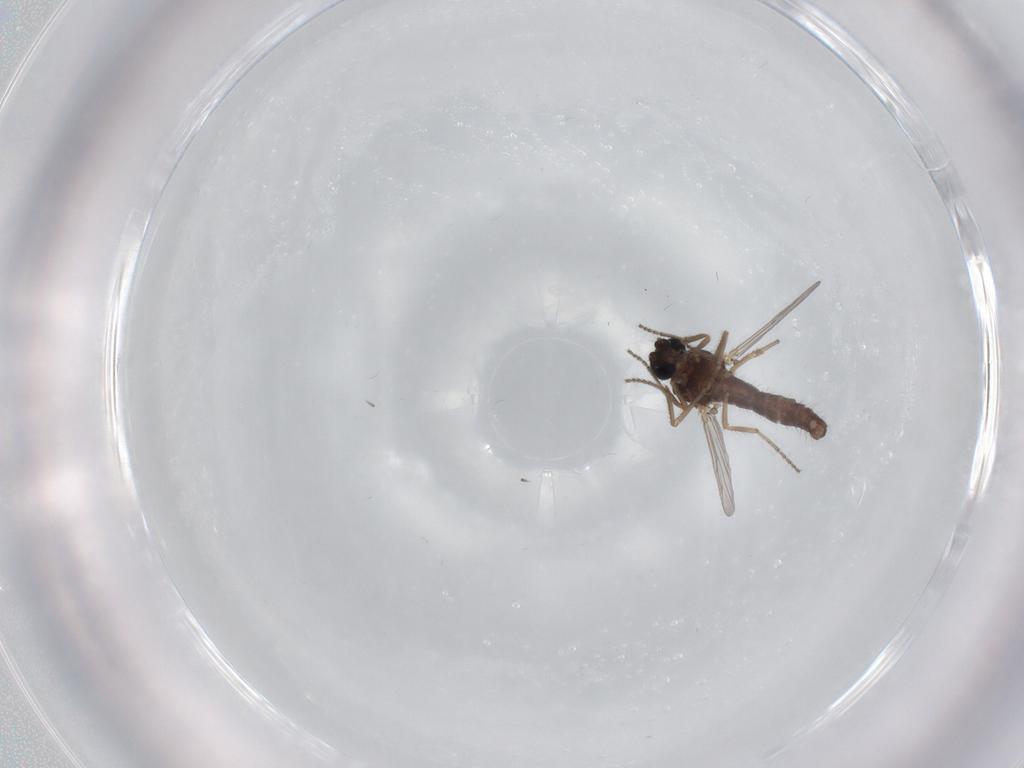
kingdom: Animalia
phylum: Arthropoda
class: Insecta
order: Diptera
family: Ceratopogonidae
